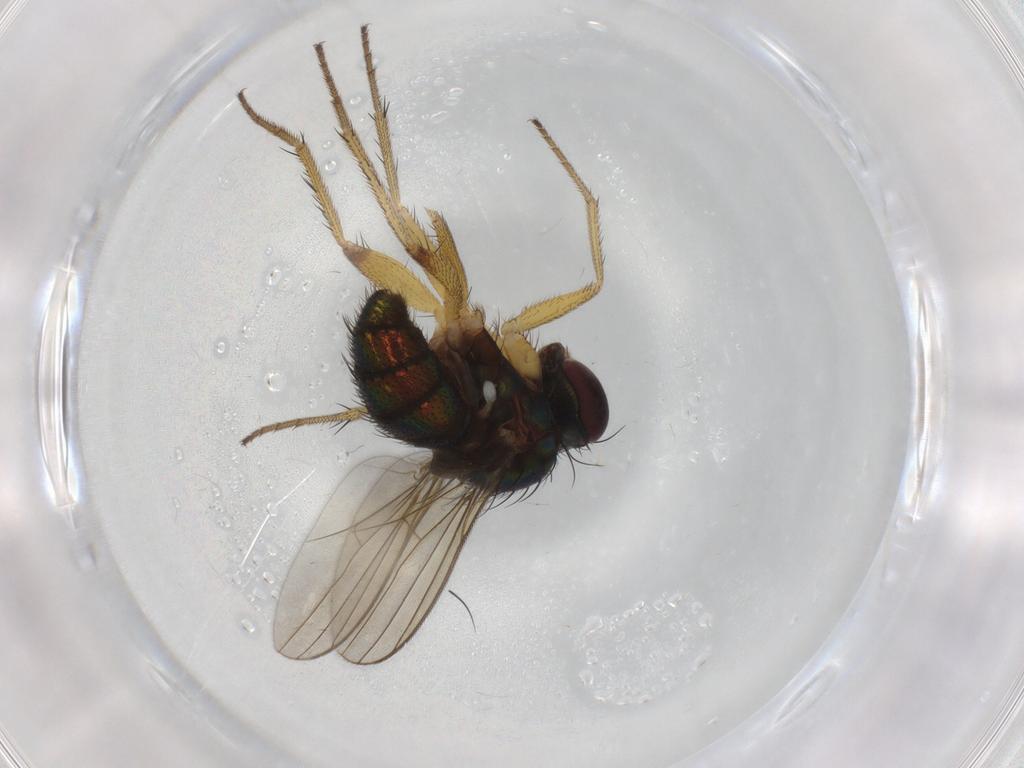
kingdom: Animalia
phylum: Arthropoda
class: Insecta
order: Diptera
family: Dolichopodidae
